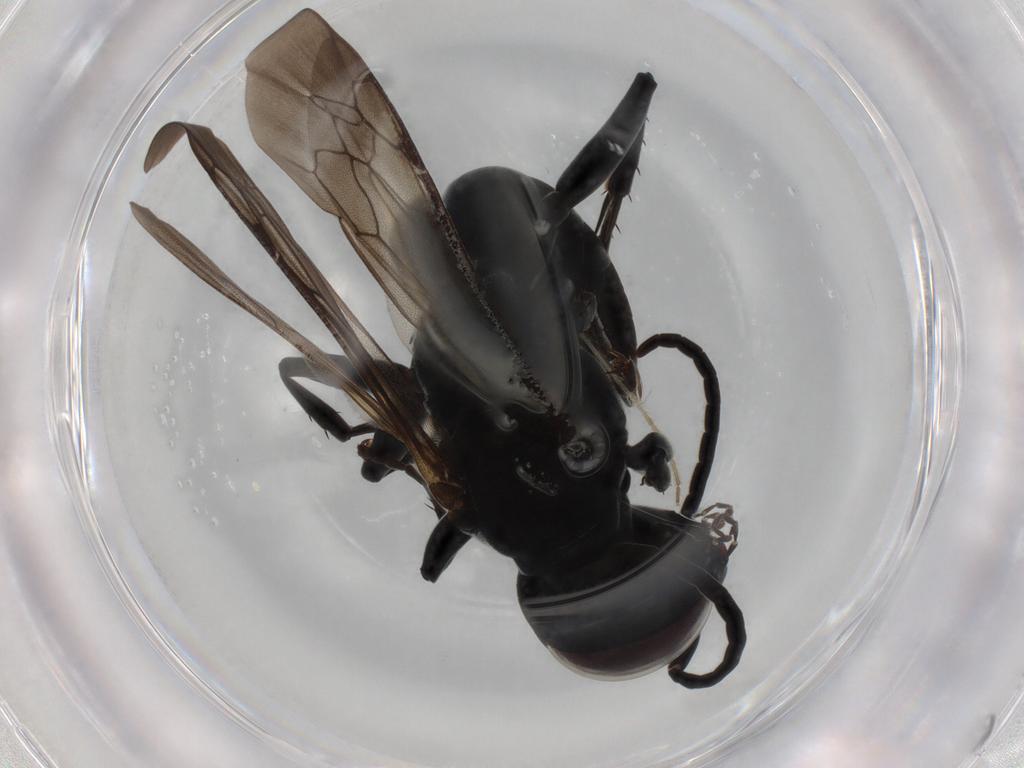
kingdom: Animalia
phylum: Arthropoda
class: Insecta
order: Hymenoptera
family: Crabronidae
